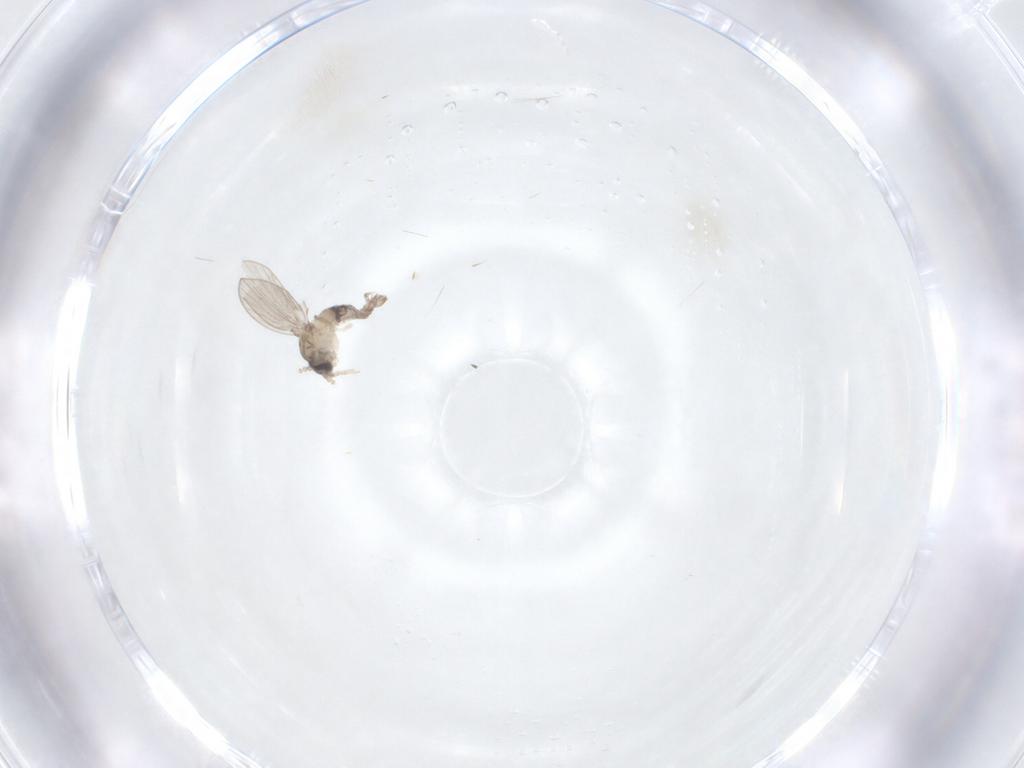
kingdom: Animalia
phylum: Arthropoda
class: Insecta
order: Diptera
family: Psychodidae
